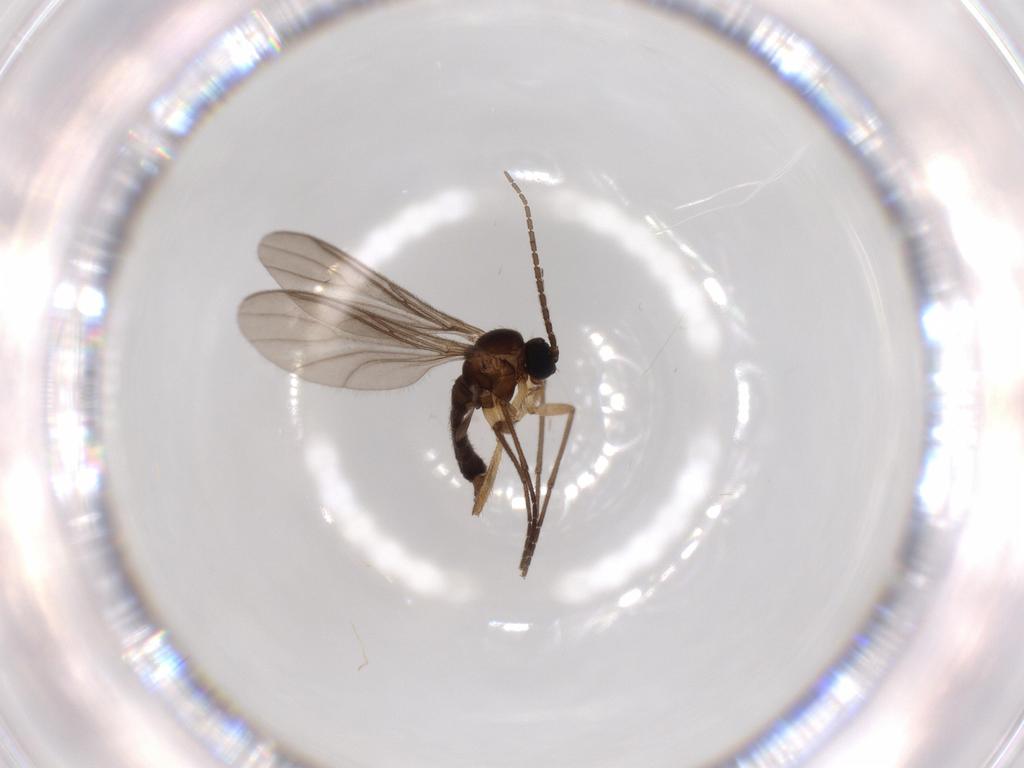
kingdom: Animalia
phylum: Arthropoda
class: Insecta
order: Diptera
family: Sciaridae
